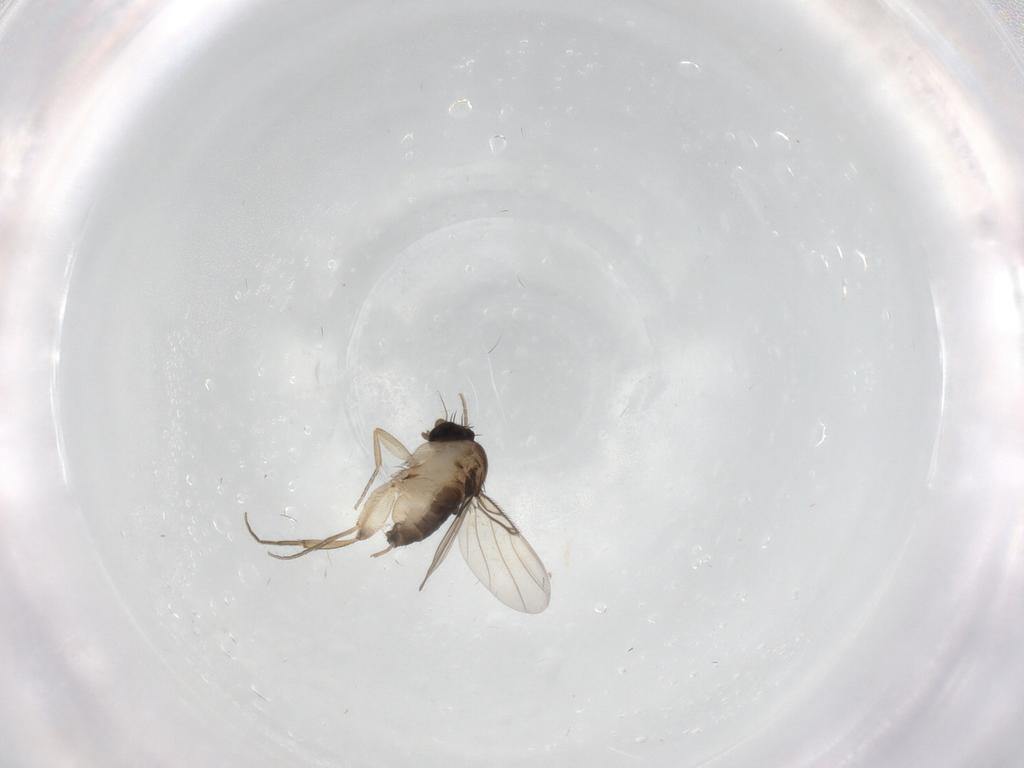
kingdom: Animalia
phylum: Arthropoda
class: Insecta
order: Diptera
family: Phoridae
